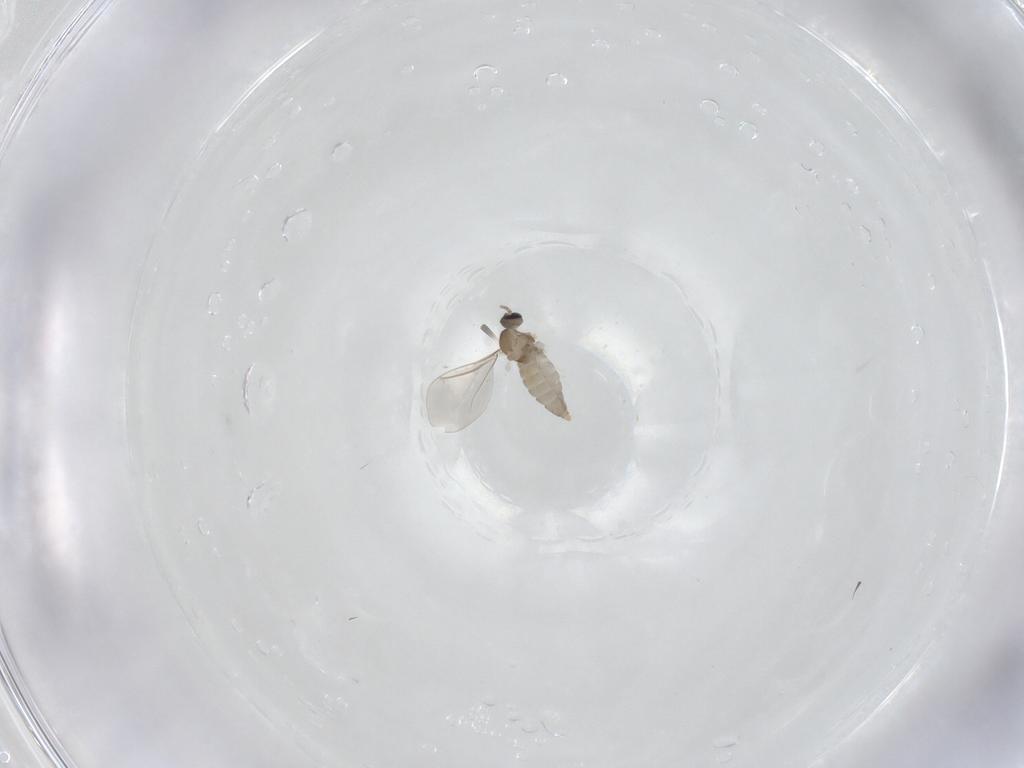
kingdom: Animalia
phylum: Arthropoda
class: Insecta
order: Diptera
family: Cecidomyiidae
